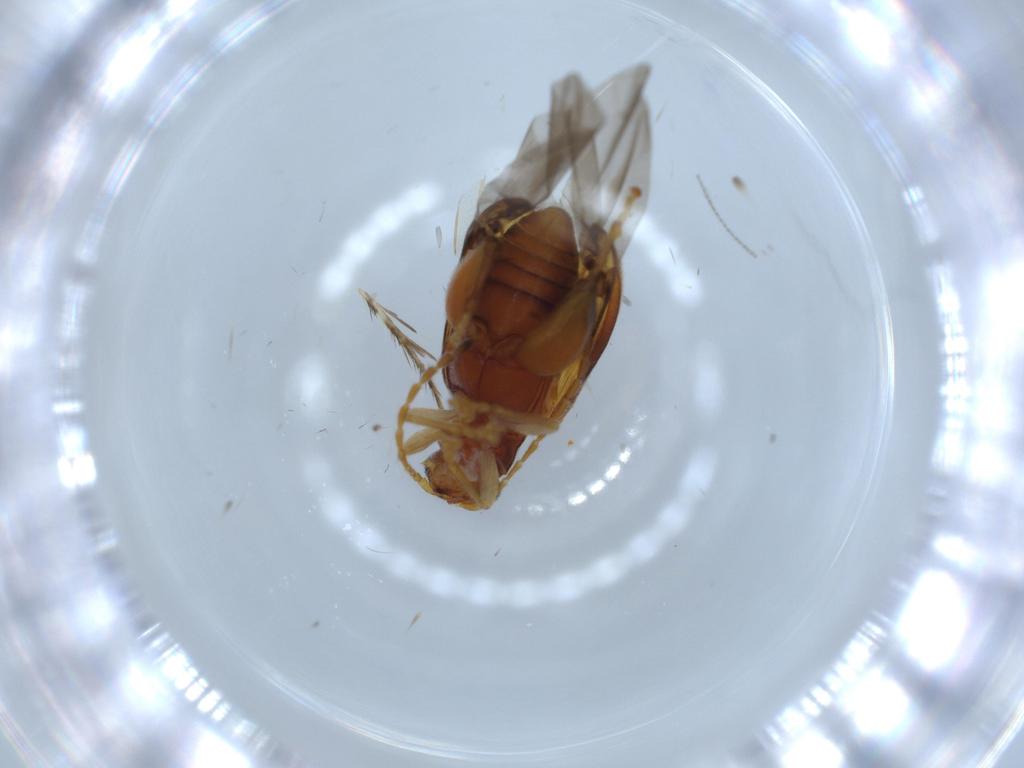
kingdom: Animalia
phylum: Arthropoda
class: Insecta
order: Coleoptera
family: Chrysomelidae
